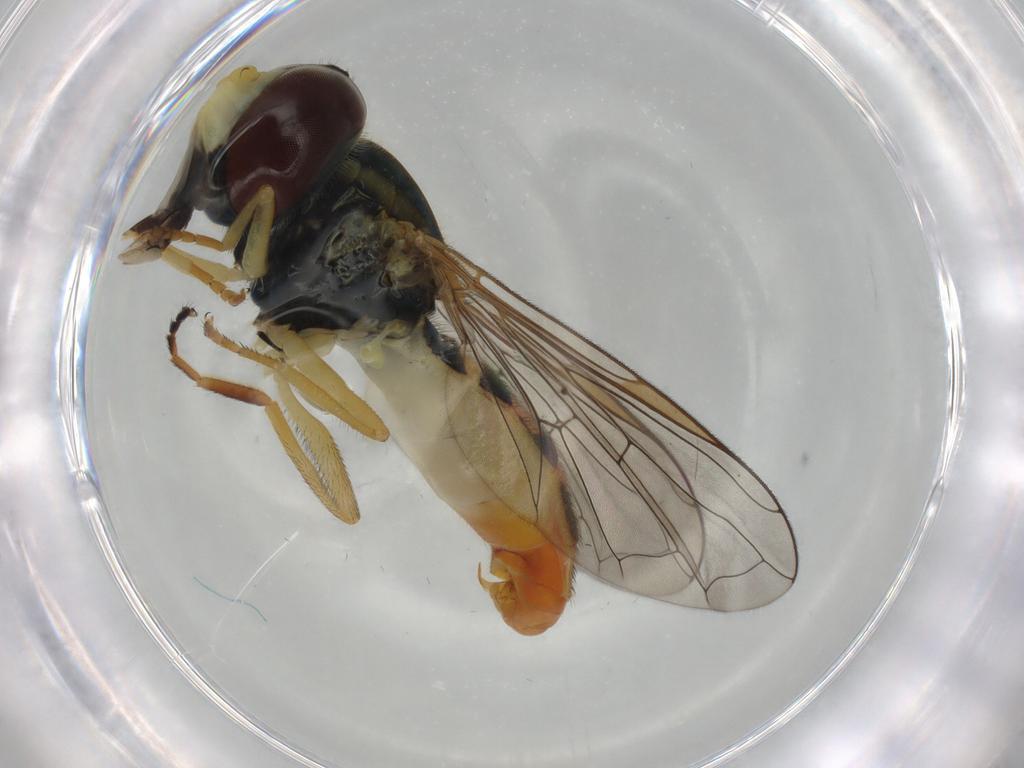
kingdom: Animalia
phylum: Arthropoda
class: Insecta
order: Diptera
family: Syrphidae
